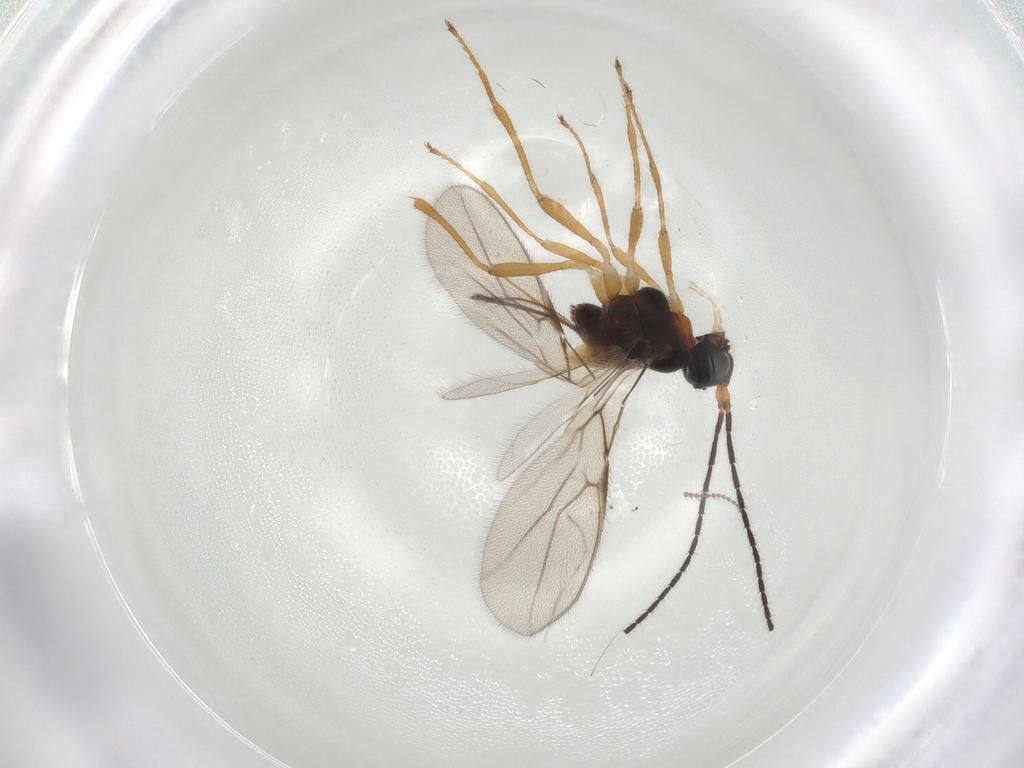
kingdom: Animalia
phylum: Arthropoda
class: Insecta
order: Hymenoptera
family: Braconidae
